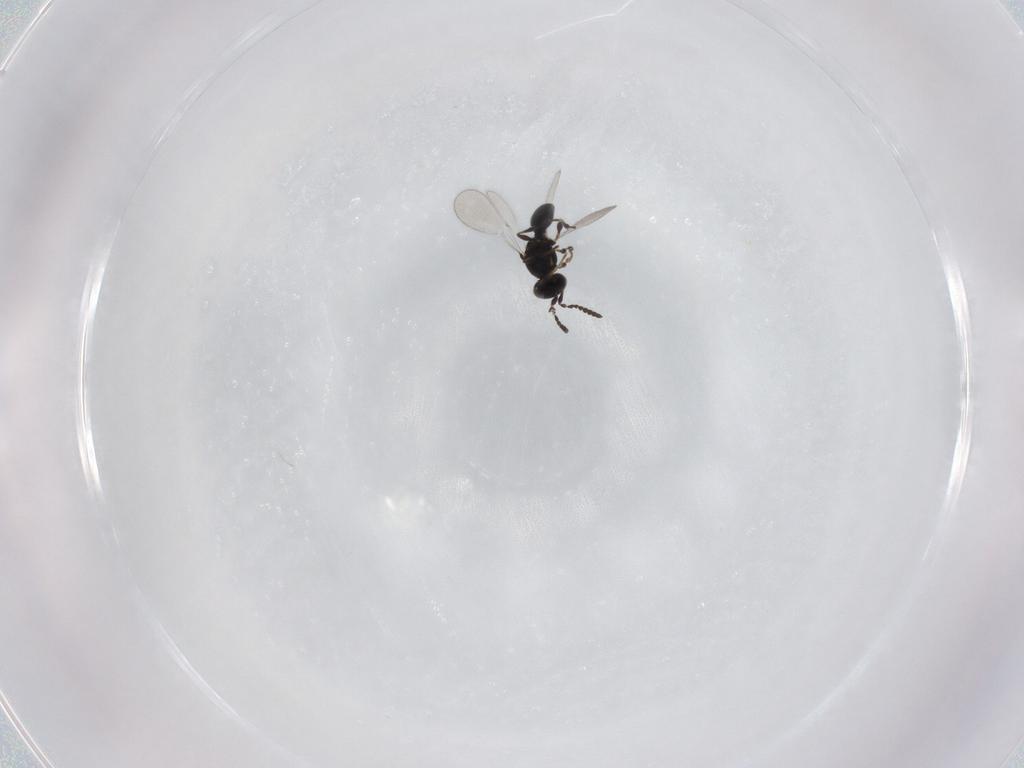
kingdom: Animalia
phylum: Arthropoda
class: Insecta
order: Hymenoptera
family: Platygastridae
